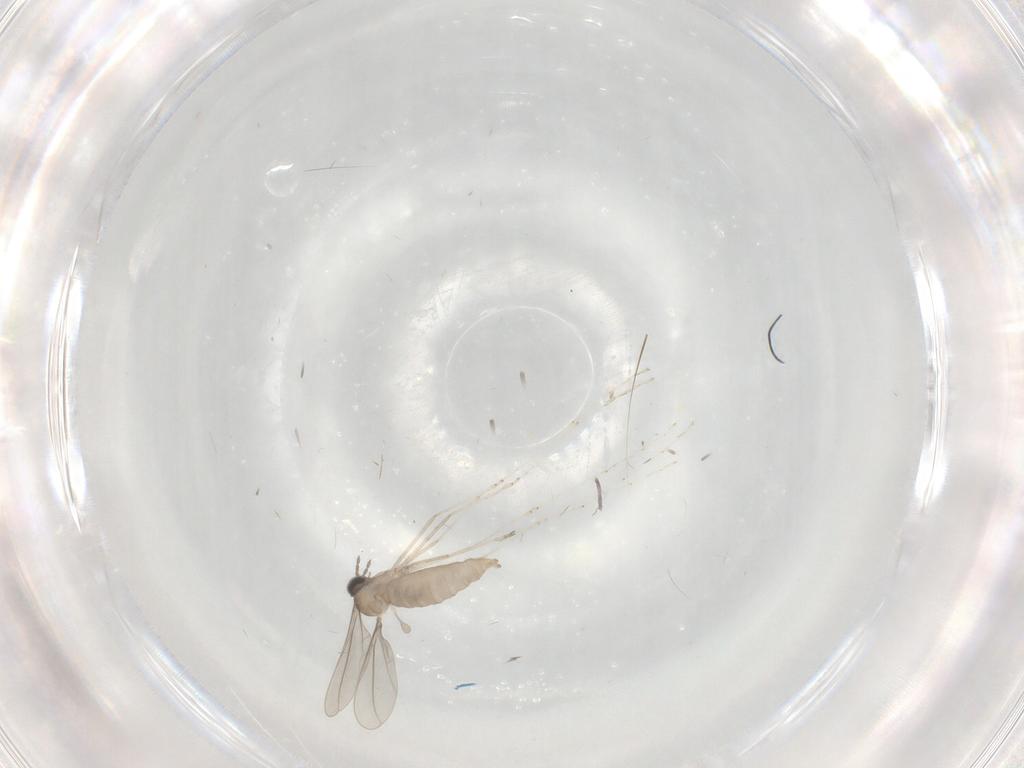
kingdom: Animalia
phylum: Arthropoda
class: Insecta
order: Diptera
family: Cecidomyiidae
